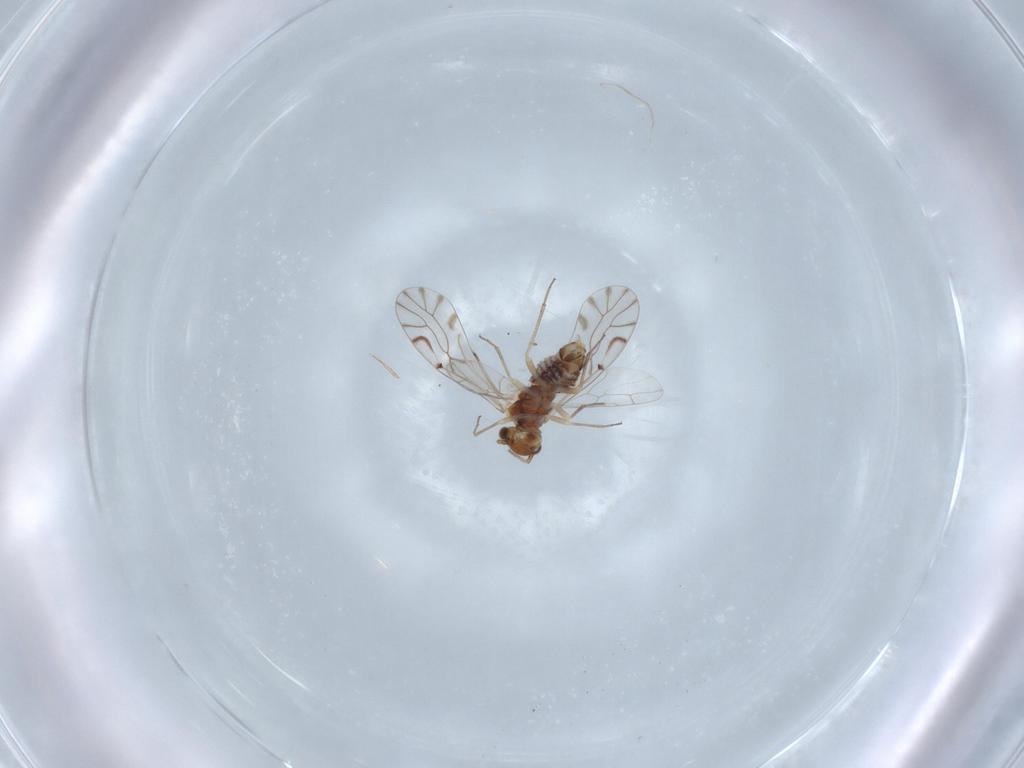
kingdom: Animalia
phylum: Arthropoda
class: Insecta
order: Psocodea
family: Lachesillidae
